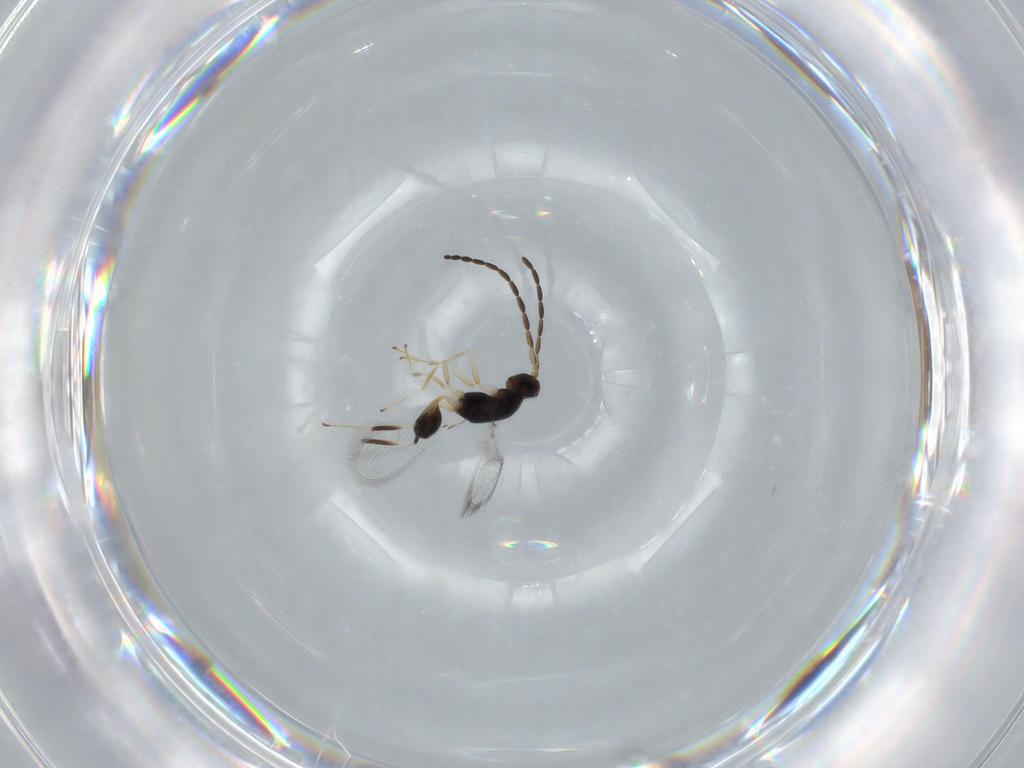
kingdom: Animalia
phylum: Arthropoda
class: Insecta
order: Hymenoptera
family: Mymaridae
